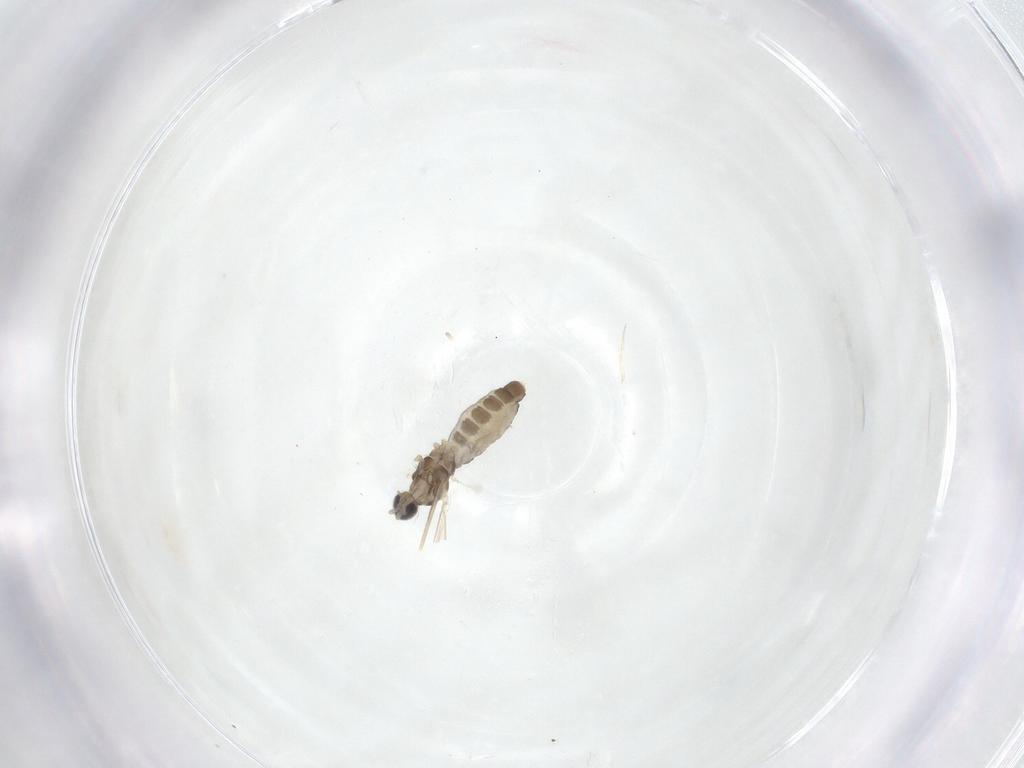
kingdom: Animalia
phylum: Arthropoda
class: Insecta
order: Diptera
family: Cecidomyiidae
